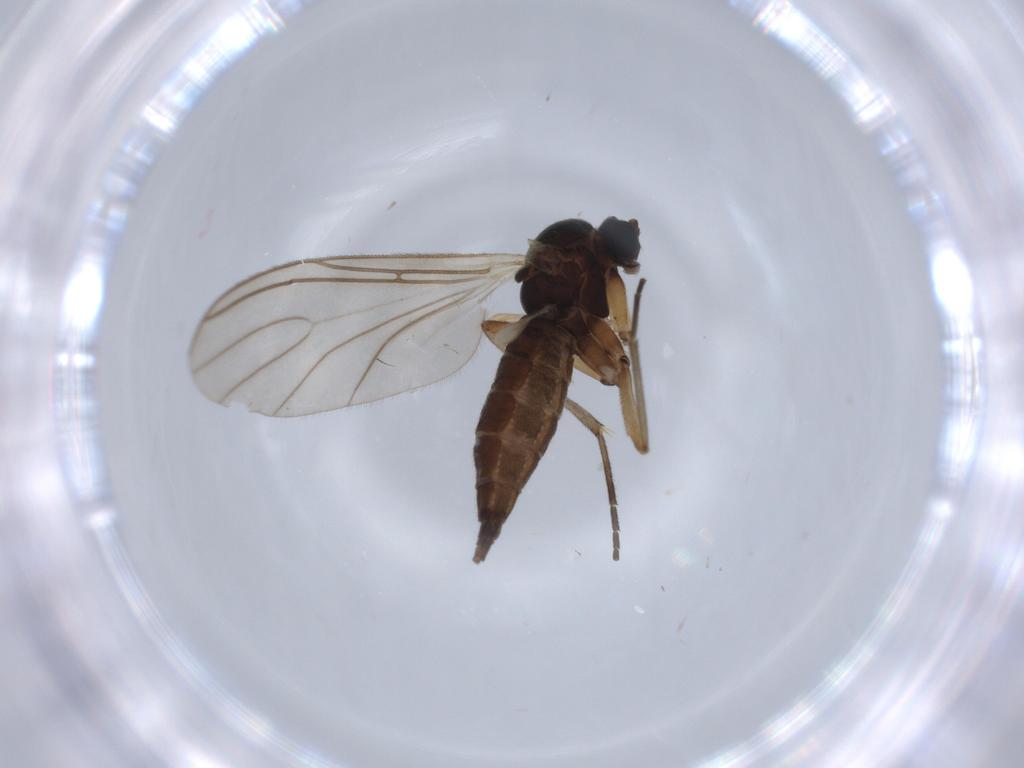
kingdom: Animalia
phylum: Arthropoda
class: Insecta
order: Diptera
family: Sciaridae
